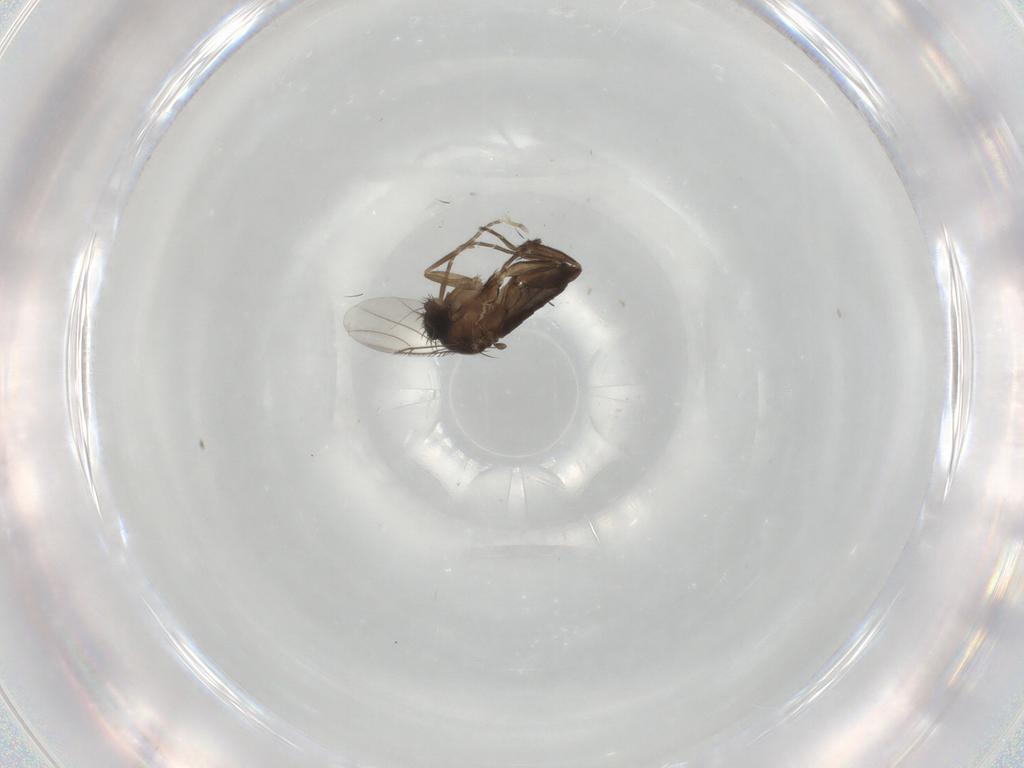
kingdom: Animalia
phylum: Arthropoda
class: Insecta
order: Diptera
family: Phoridae
